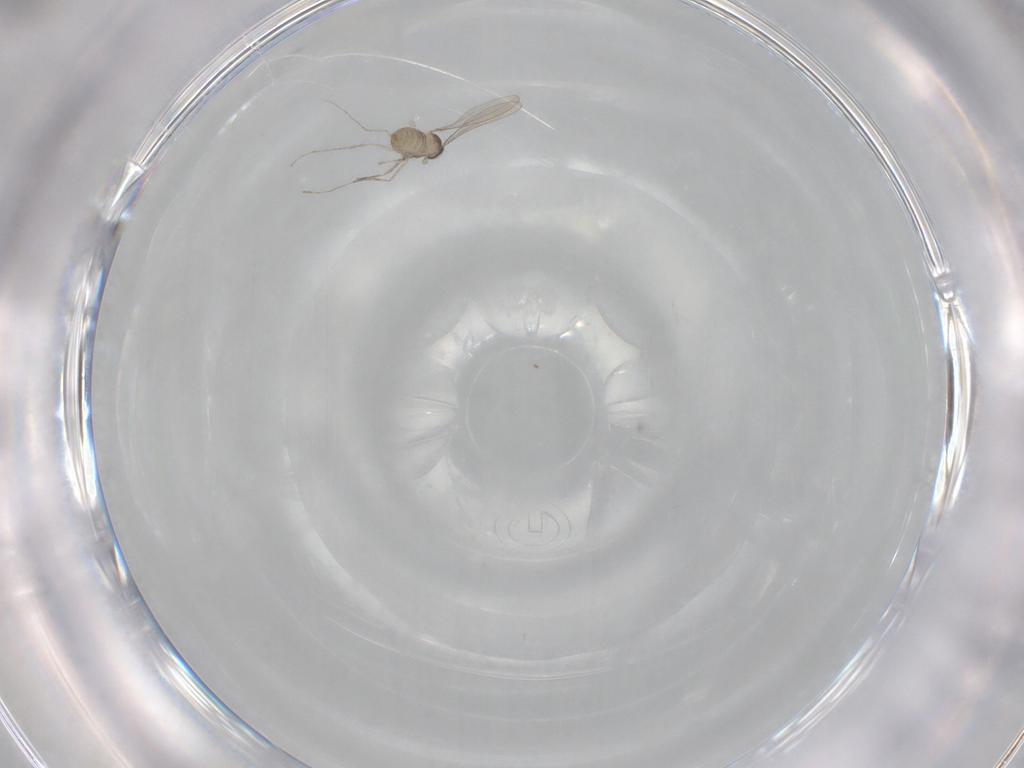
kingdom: Animalia
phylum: Arthropoda
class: Insecta
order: Diptera
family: Cecidomyiidae
